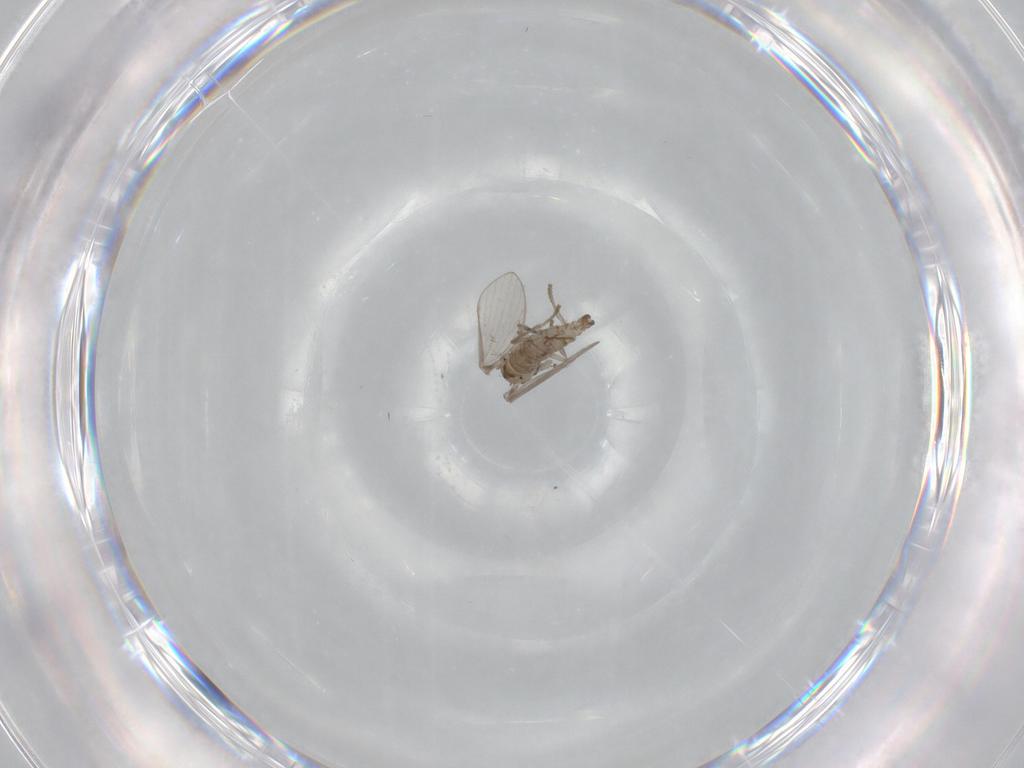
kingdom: Animalia
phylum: Arthropoda
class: Insecta
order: Diptera
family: Psychodidae
